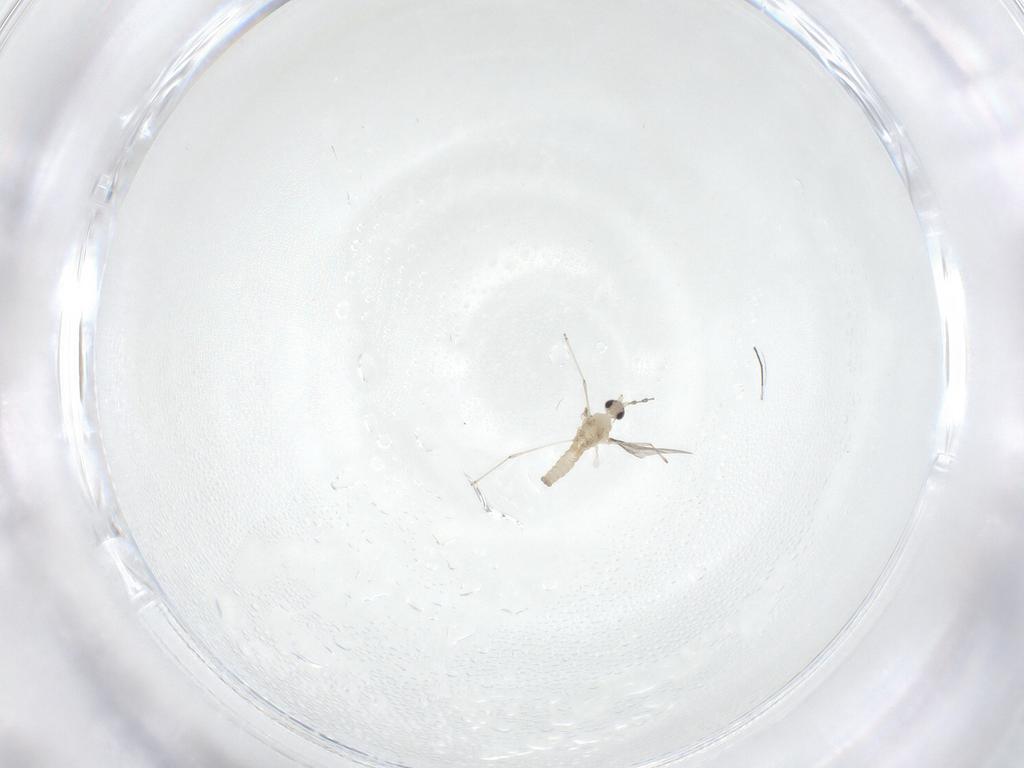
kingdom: Animalia
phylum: Arthropoda
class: Insecta
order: Diptera
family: Cecidomyiidae
